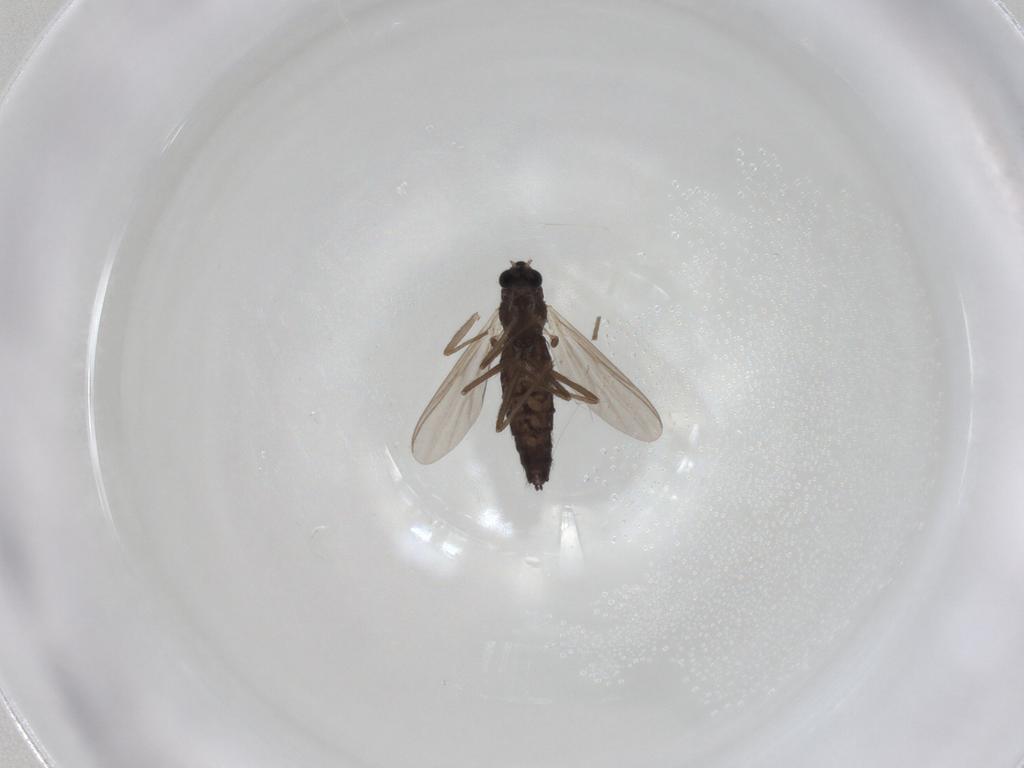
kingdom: Animalia
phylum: Arthropoda
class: Insecta
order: Diptera
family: Chironomidae
